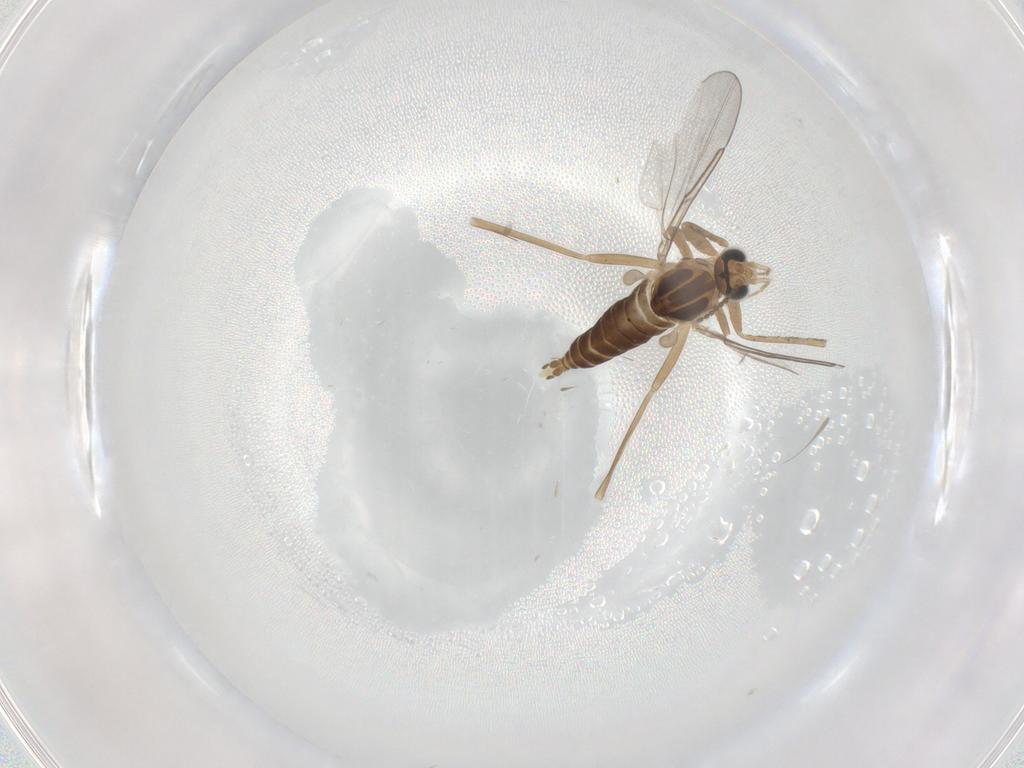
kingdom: Animalia
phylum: Arthropoda
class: Insecta
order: Diptera
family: Cecidomyiidae
